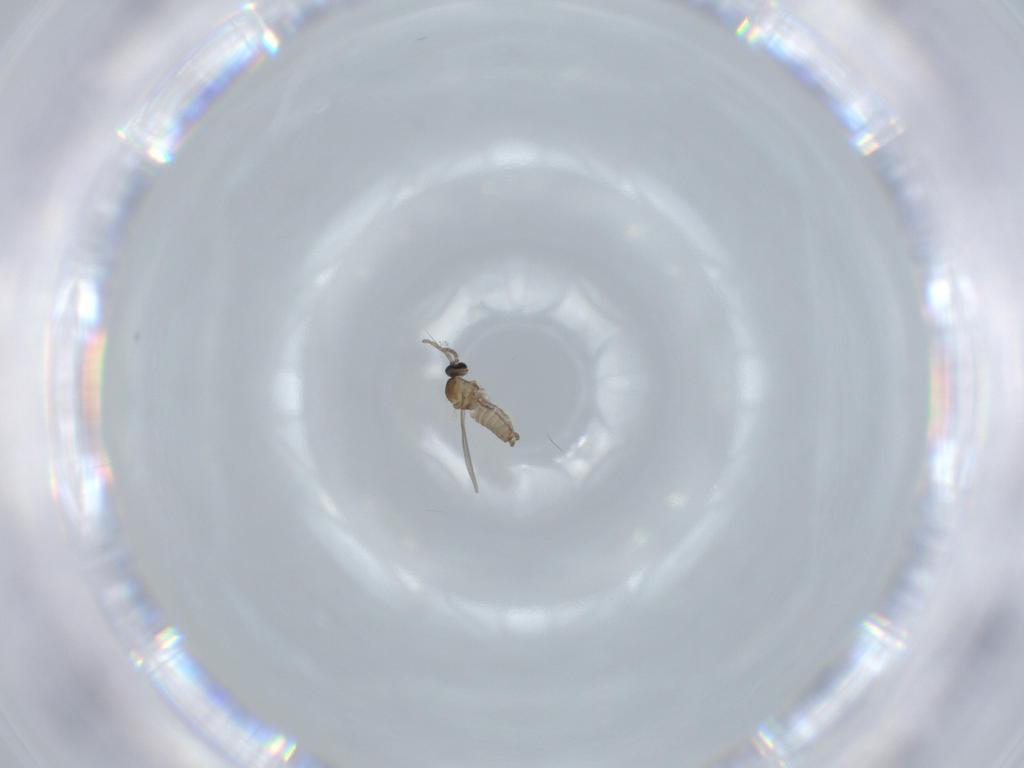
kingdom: Animalia
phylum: Arthropoda
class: Insecta
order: Diptera
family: Cecidomyiidae
